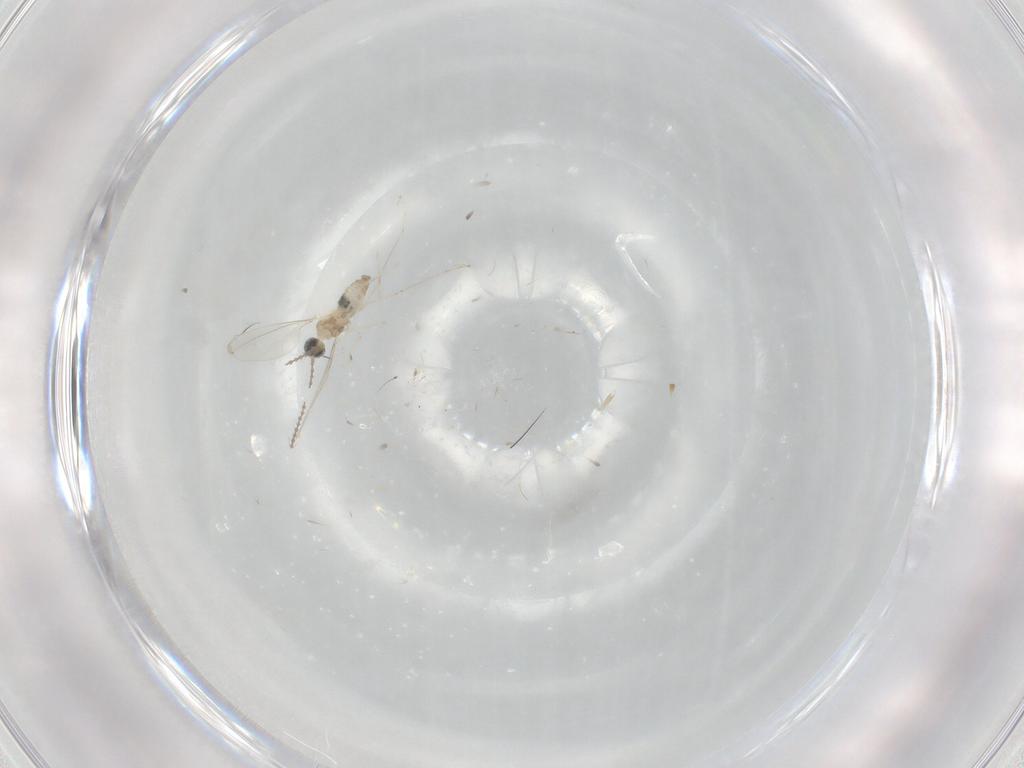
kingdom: Animalia
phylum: Arthropoda
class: Insecta
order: Diptera
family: Cecidomyiidae
